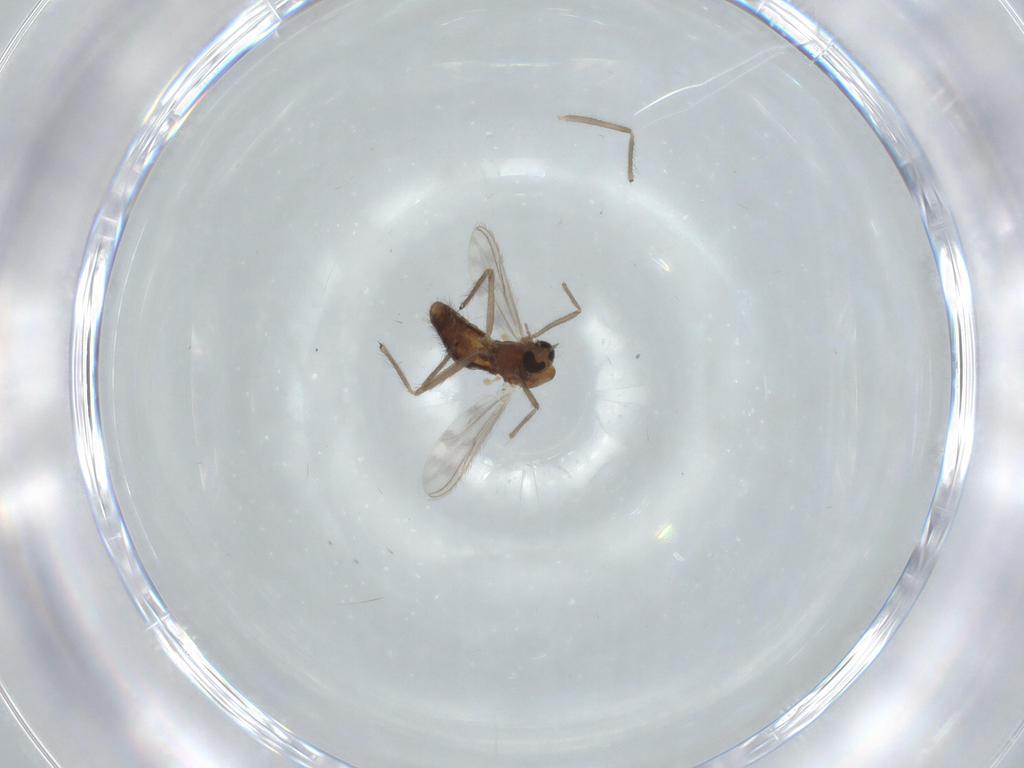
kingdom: Animalia
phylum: Arthropoda
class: Insecta
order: Diptera
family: Chironomidae
